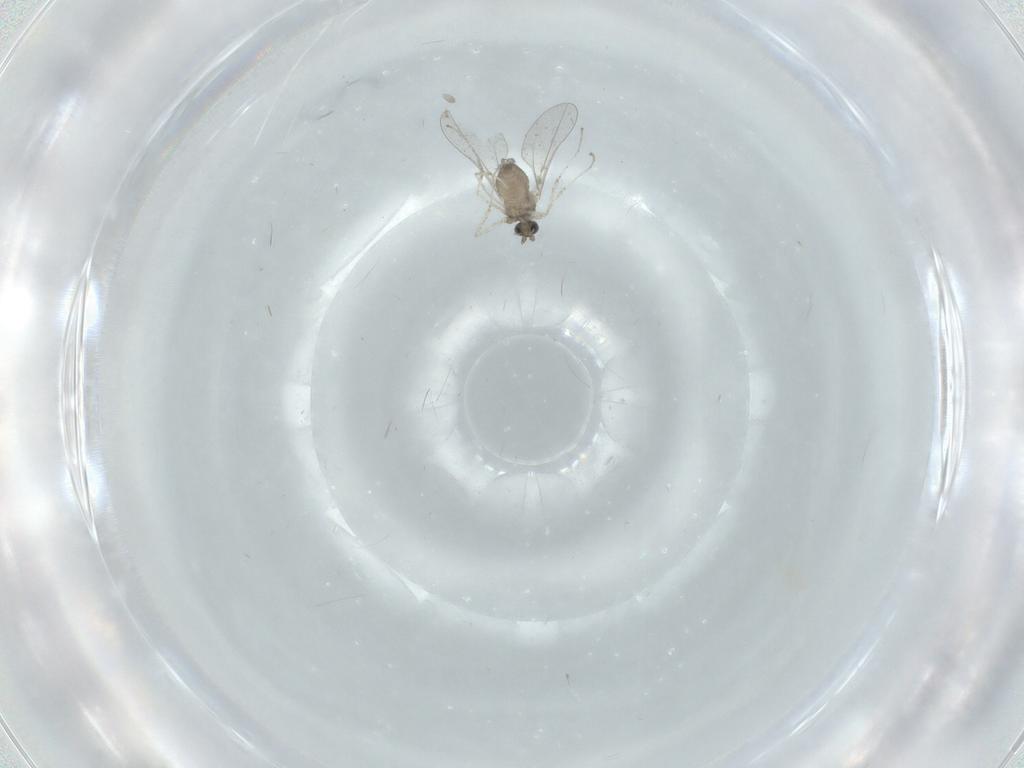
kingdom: Animalia
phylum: Arthropoda
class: Insecta
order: Diptera
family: Cecidomyiidae
